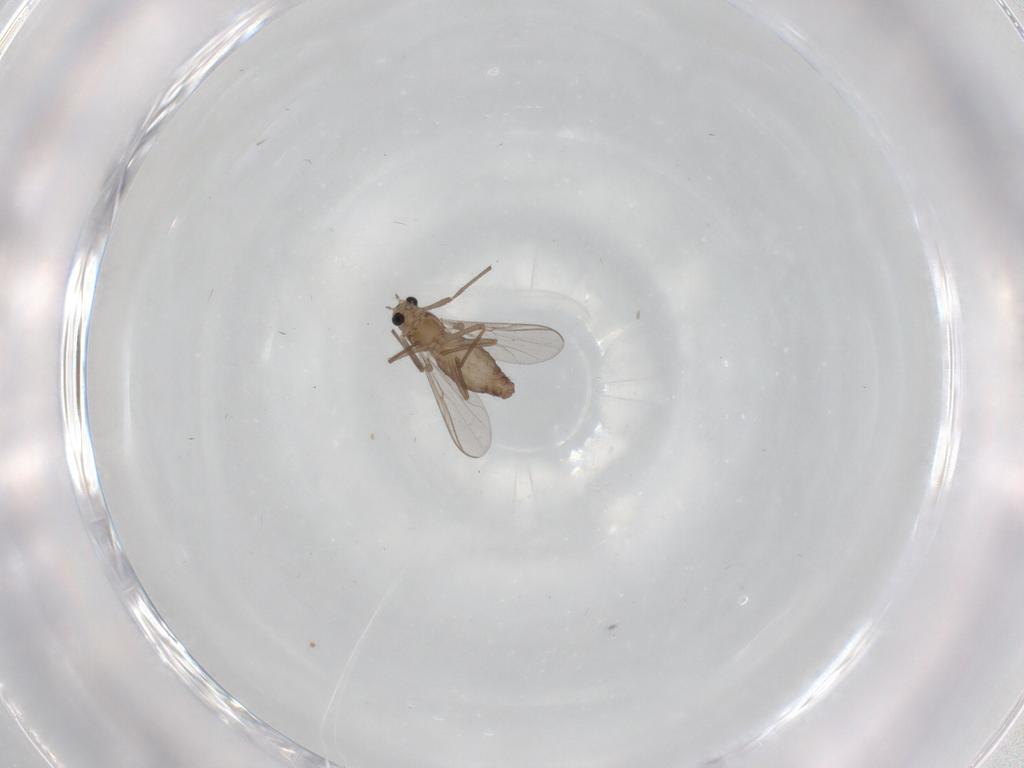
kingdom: Animalia
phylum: Arthropoda
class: Insecta
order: Diptera
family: Chironomidae
